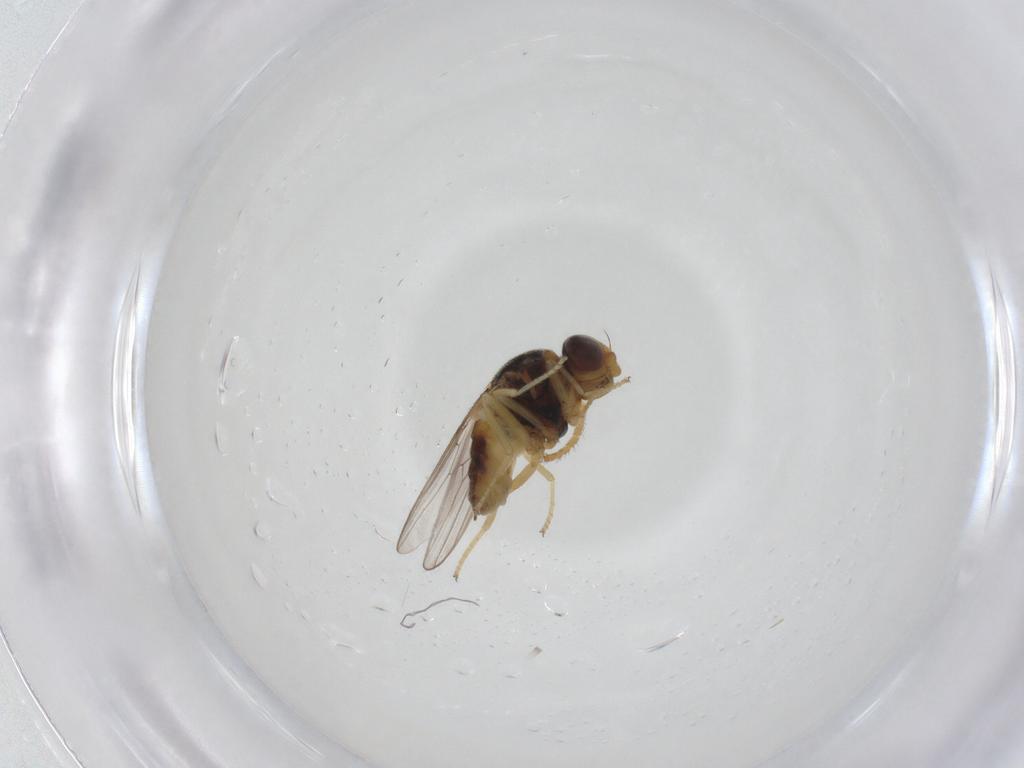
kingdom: Animalia
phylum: Arthropoda
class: Insecta
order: Diptera
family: Chloropidae
